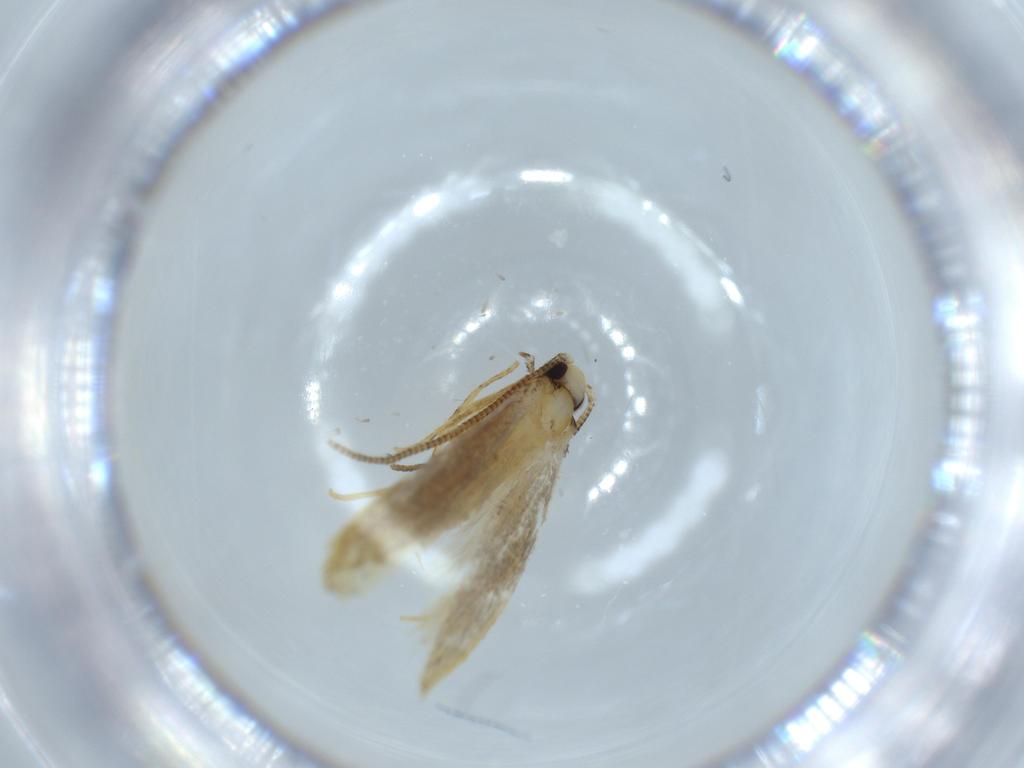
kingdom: Animalia
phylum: Arthropoda
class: Insecta
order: Lepidoptera
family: Tineidae
